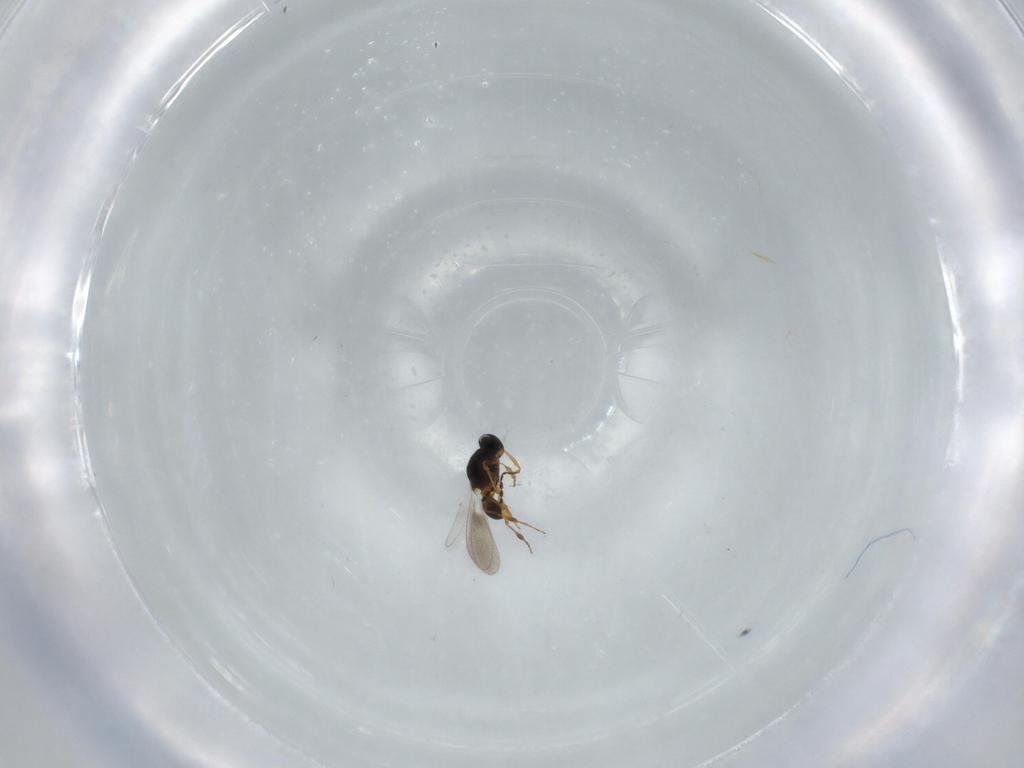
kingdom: Animalia
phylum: Arthropoda
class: Insecta
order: Hymenoptera
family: Platygastridae
